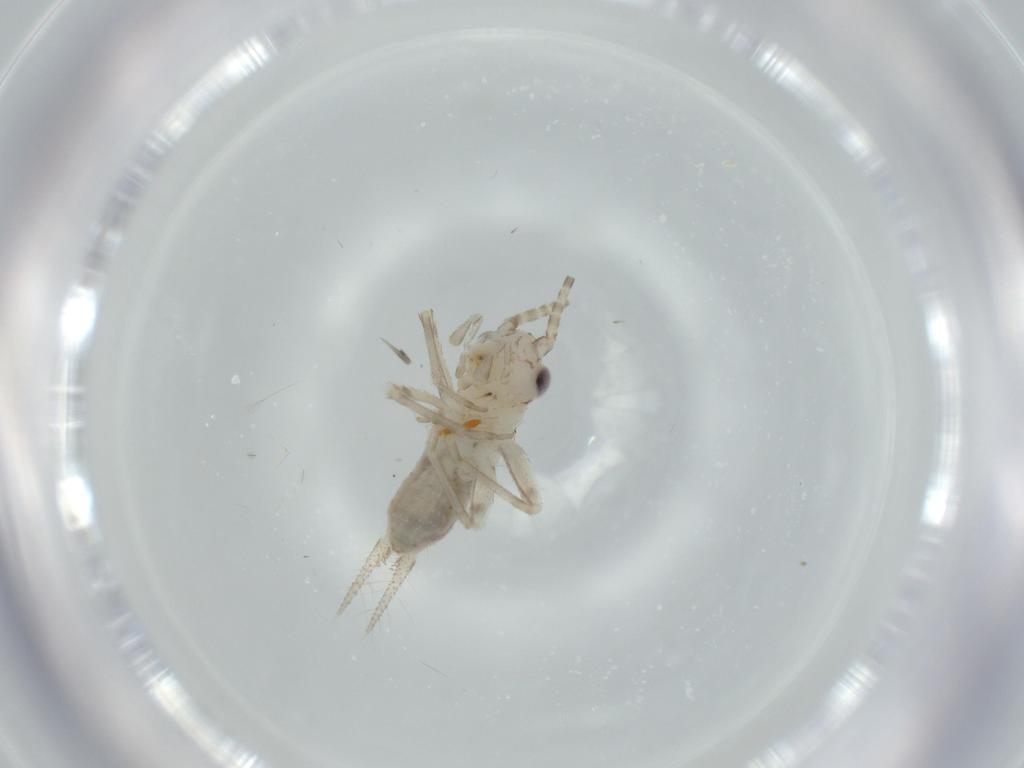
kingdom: Animalia
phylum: Arthropoda
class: Insecta
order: Orthoptera
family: Trigonidiidae
